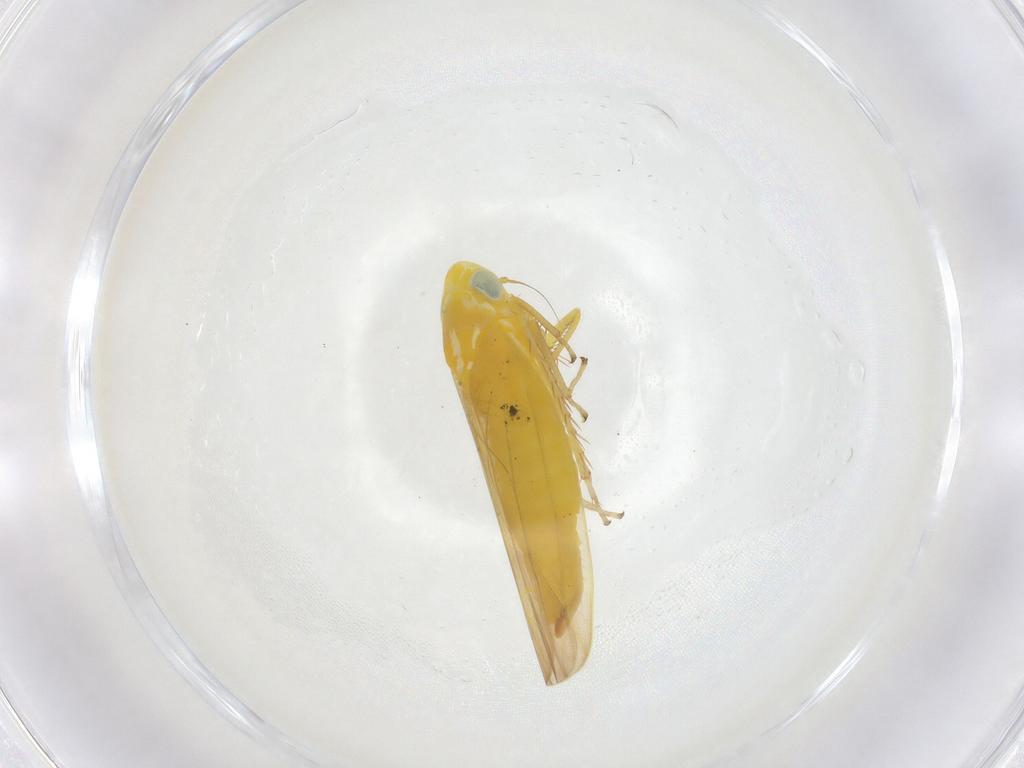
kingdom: Animalia
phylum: Arthropoda
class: Insecta
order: Hemiptera
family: Cicadellidae
